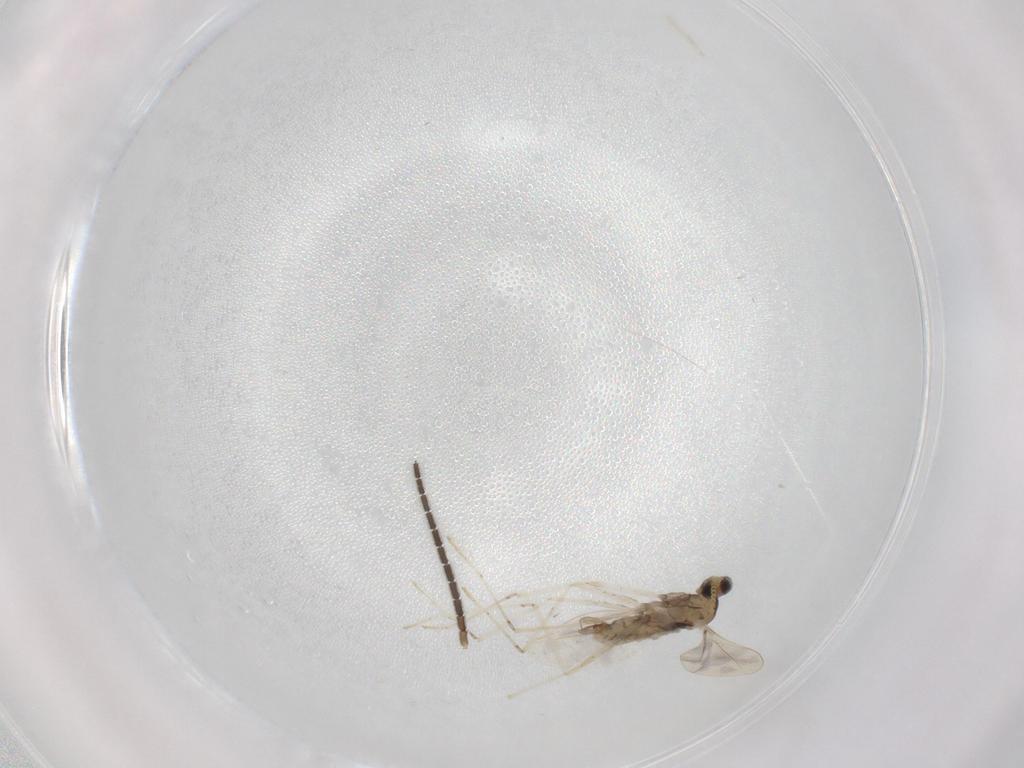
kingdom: Animalia
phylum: Arthropoda
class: Insecta
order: Diptera
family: Cecidomyiidae
